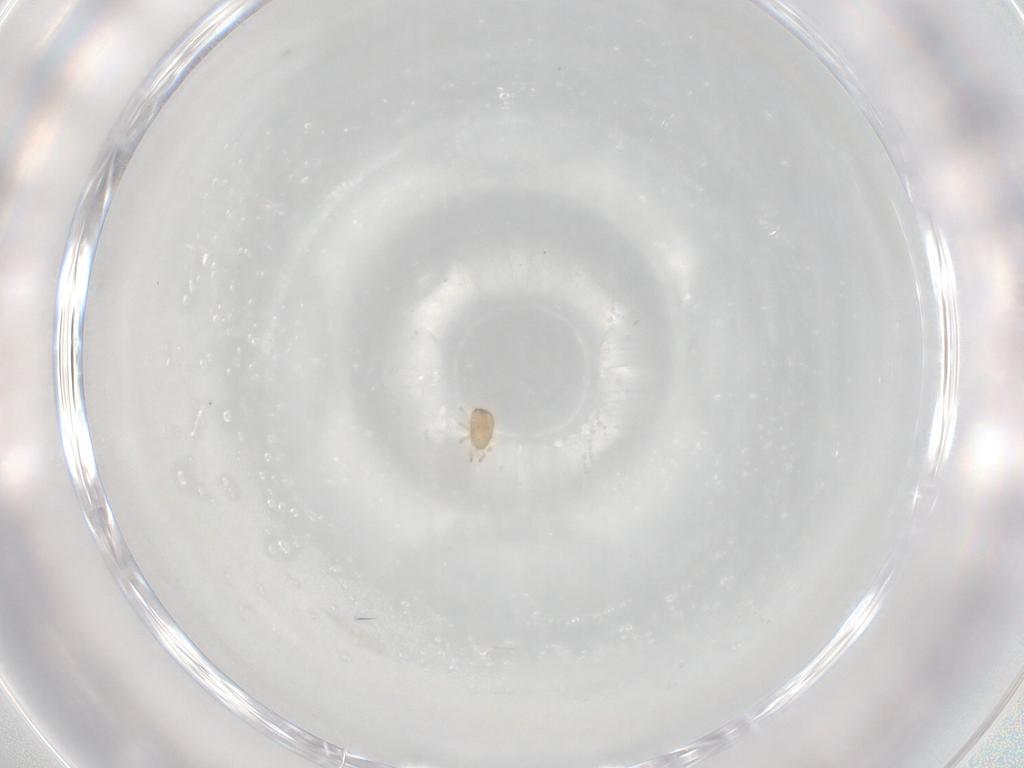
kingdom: Animalia
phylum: Arthropoda
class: Arachnida
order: Mesostigmata
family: Ascidae
